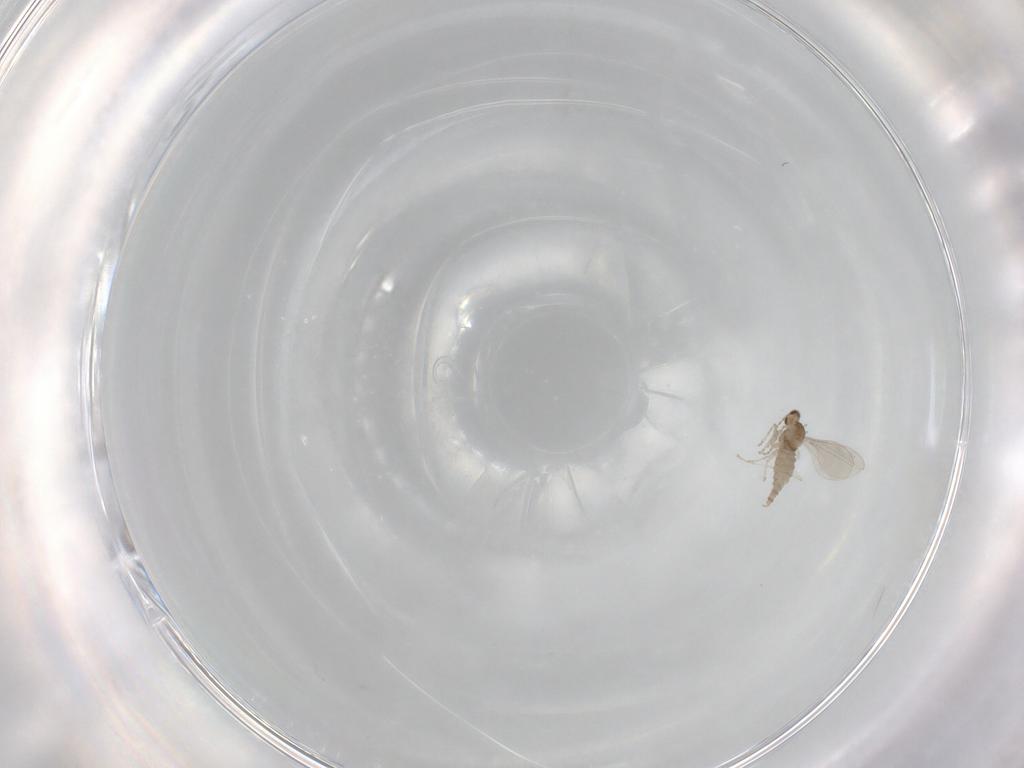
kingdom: Animalia
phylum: Arthropoda
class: Insecta
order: Diptera
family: Cecidomyiidae
